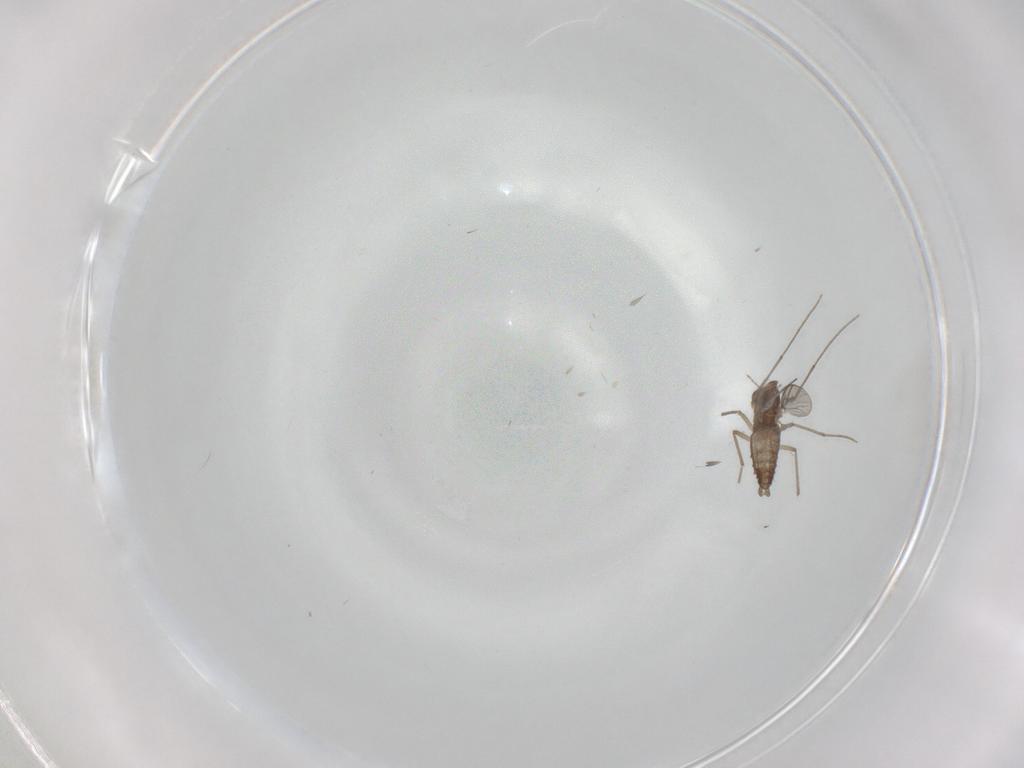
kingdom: Animalia
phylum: Arthropoda
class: Insecta
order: Diptera
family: Chironomidae
